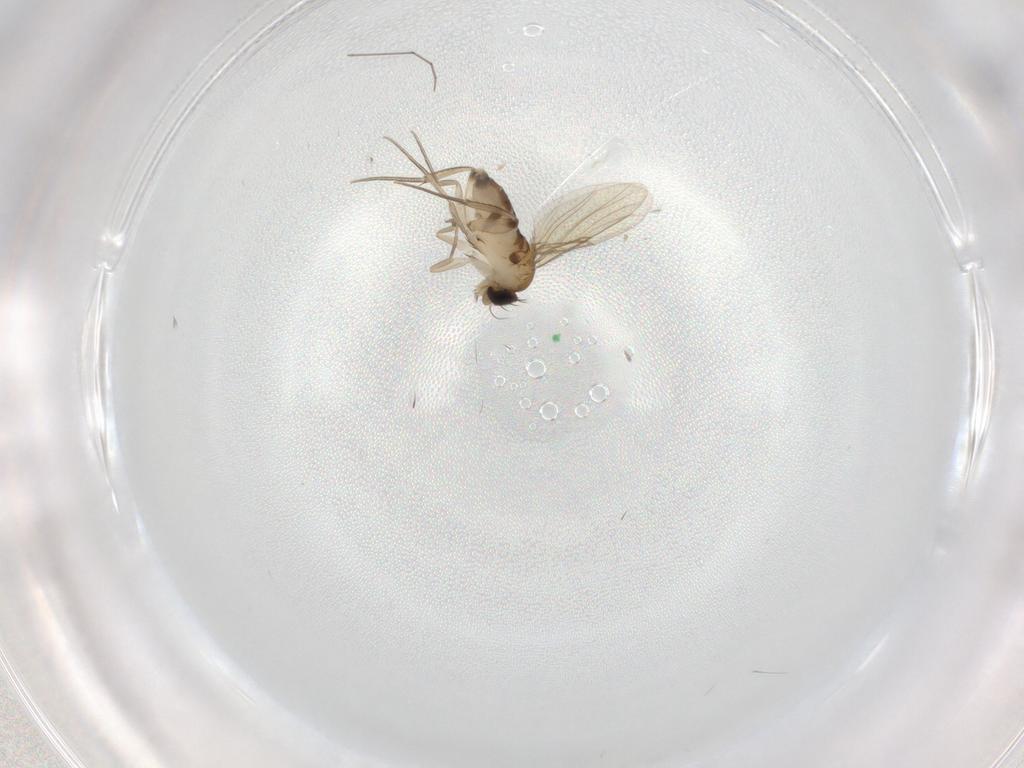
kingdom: Animalia
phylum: Arthropoda
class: Insecta
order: Diptera
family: Phoridae
